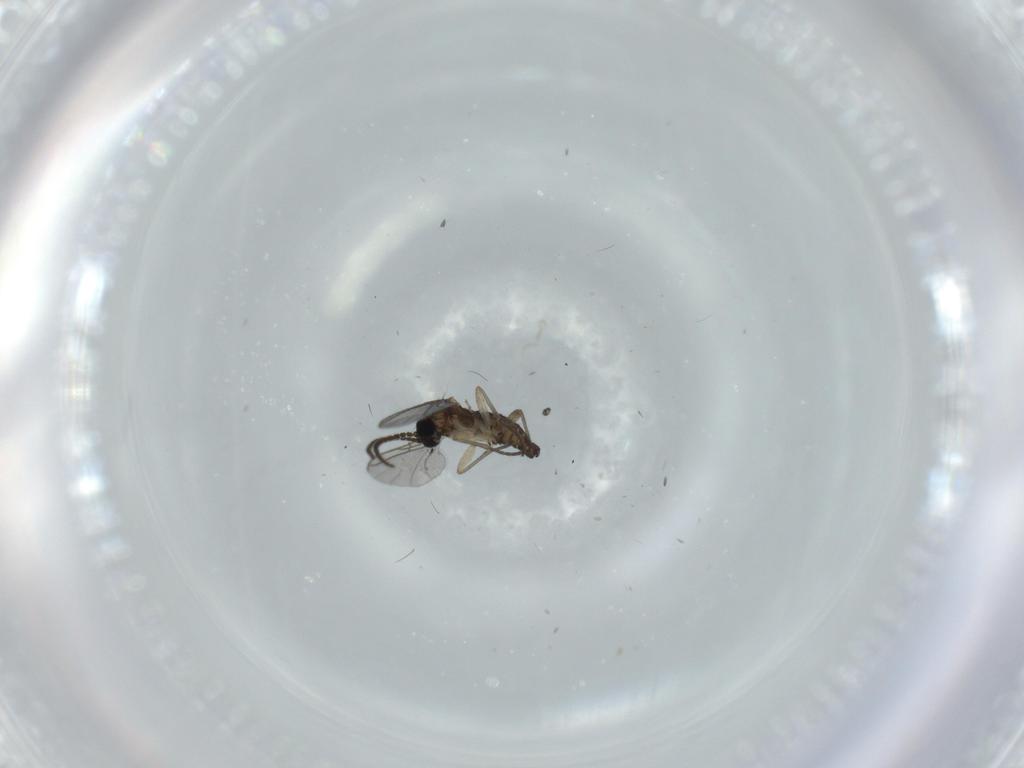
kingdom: Animalia
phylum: Arthropoda
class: Insecta
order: Diptera
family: Sciaridae
